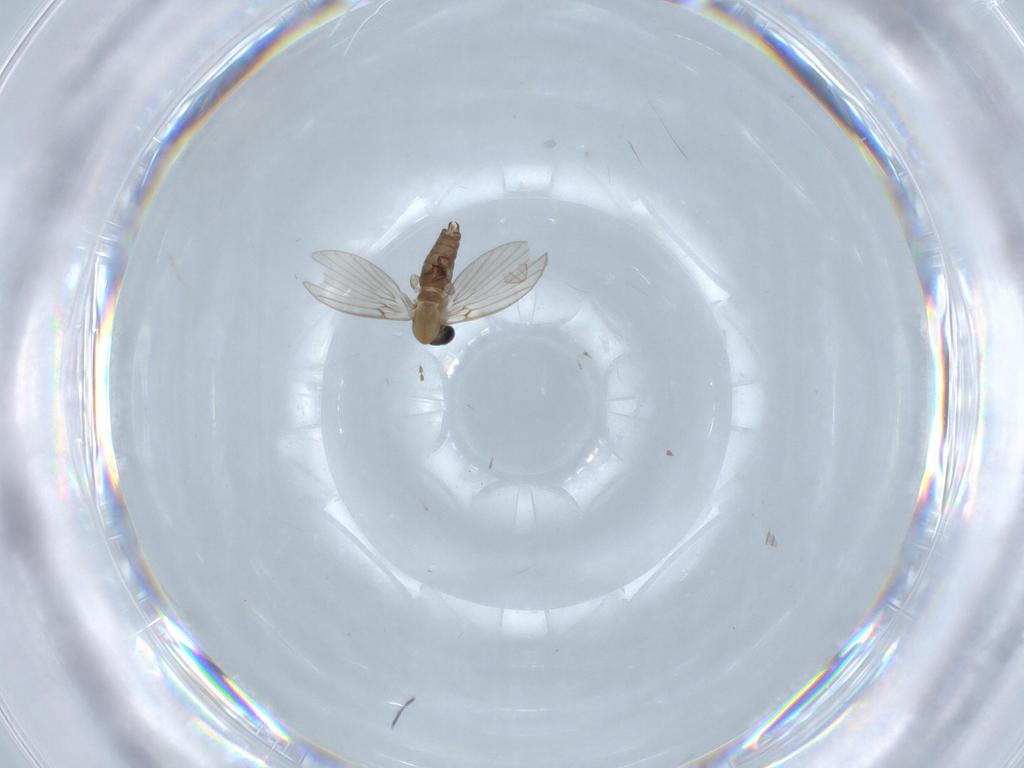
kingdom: Animalia
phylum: Arthropoda
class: Insecta
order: Diptera
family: Psychodidae
